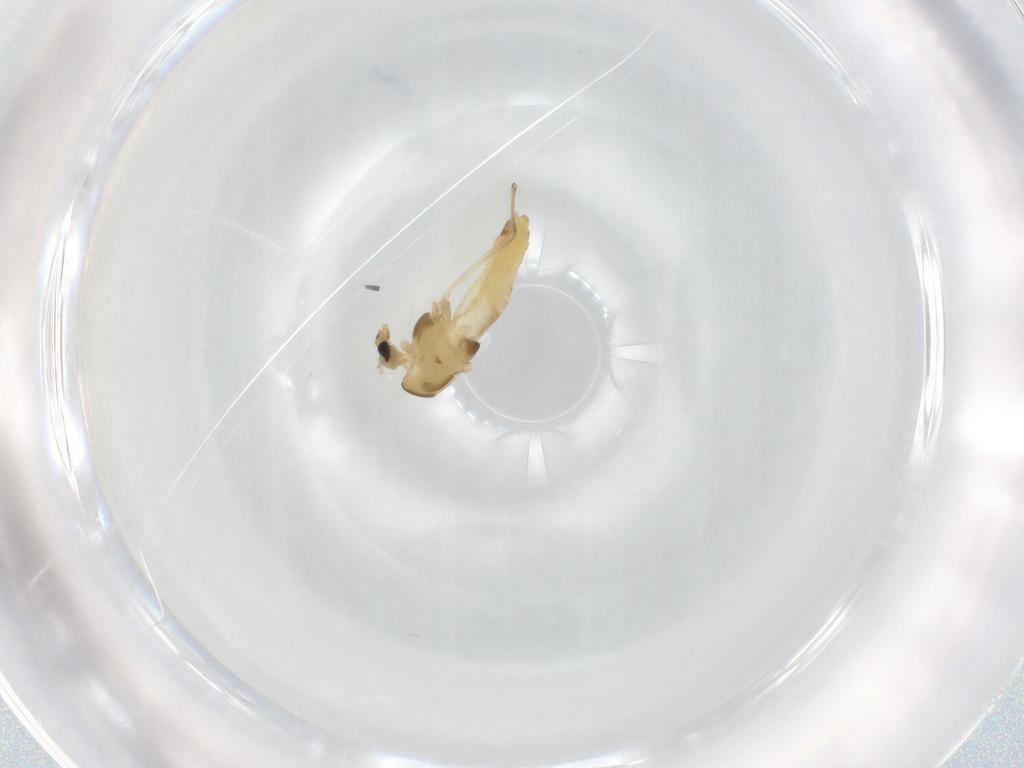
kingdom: Animalia
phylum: Arthropoda
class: Insecta
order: Diptera
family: Chironomidae
